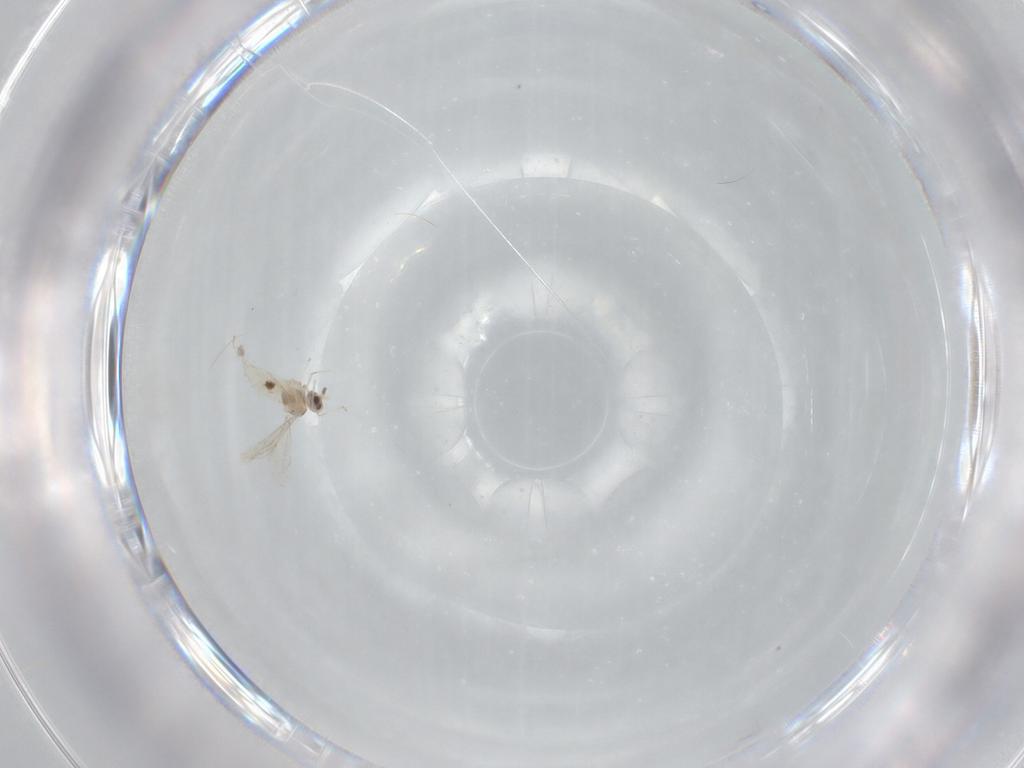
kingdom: Animalia
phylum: Arthropoda
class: Insecta
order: Diptera
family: Cecidomyiidae
